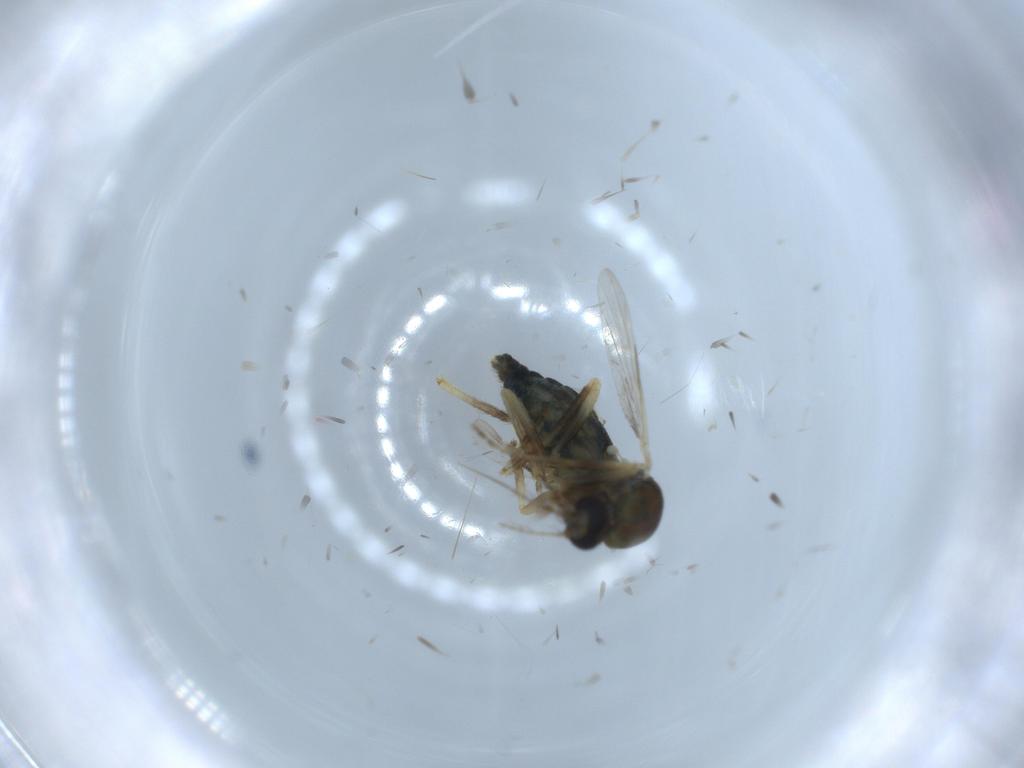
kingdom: Animalia
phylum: Arthropoda
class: Insecta
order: Diptera
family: Ceratopogonidae
